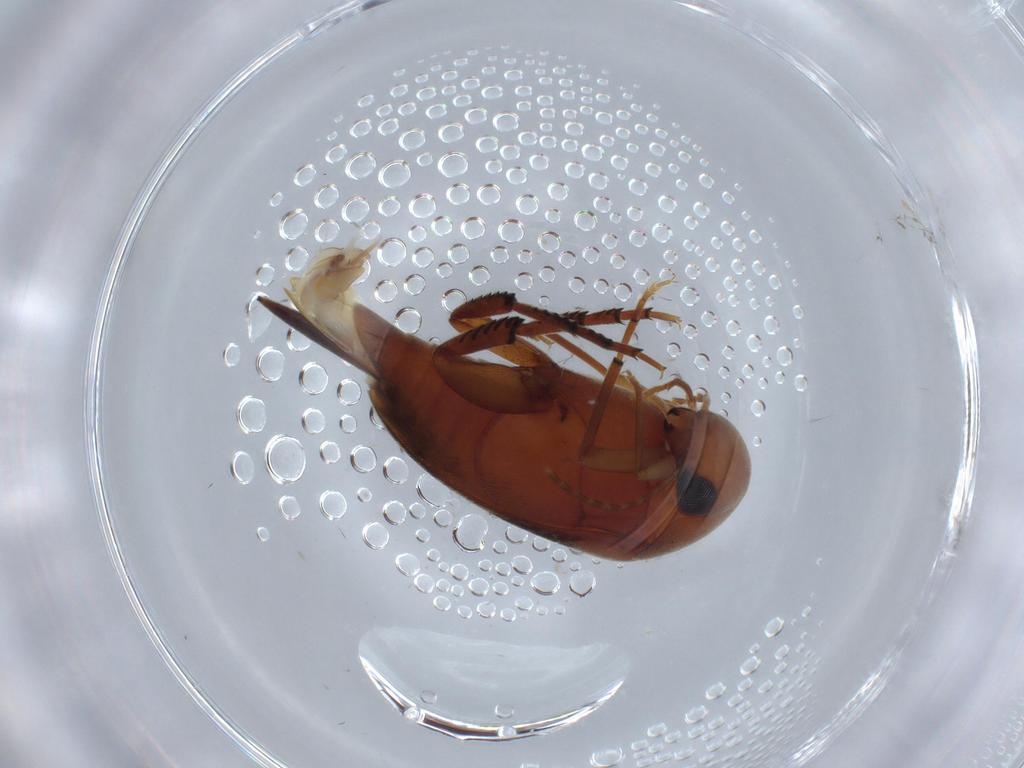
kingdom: Animalia
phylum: Arthropoda
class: Insecta
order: Coleoptera
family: Mordellidae
